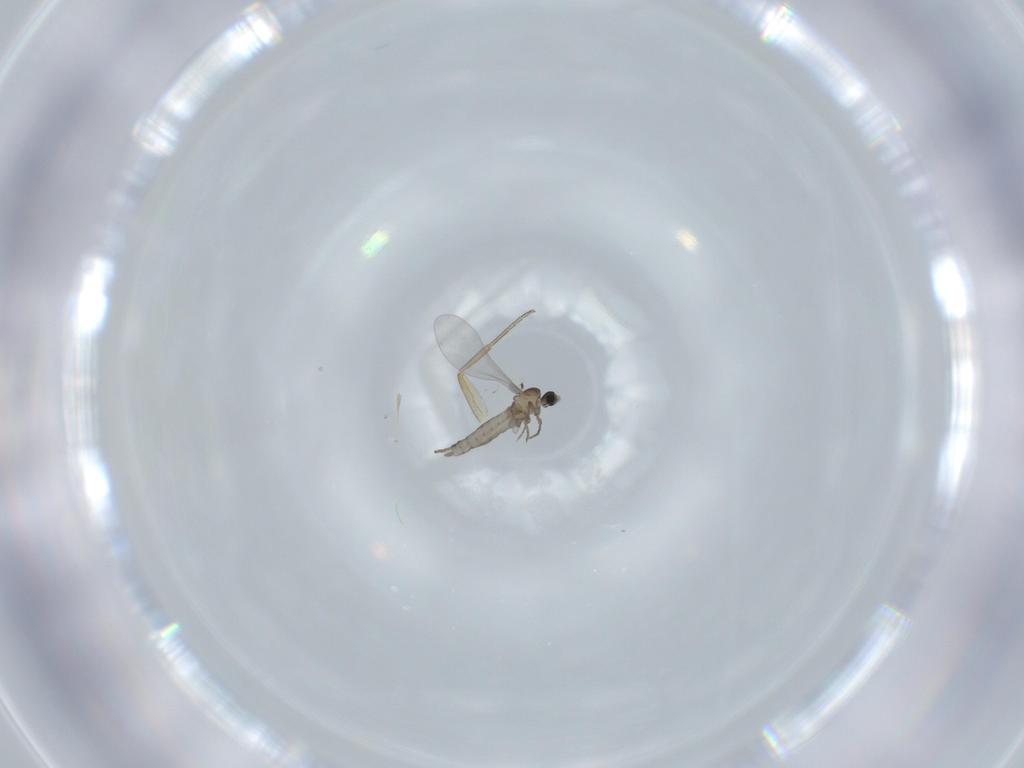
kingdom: Animalia
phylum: Arthropoda
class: Insecta
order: Diptera
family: Cecidomyiidae
